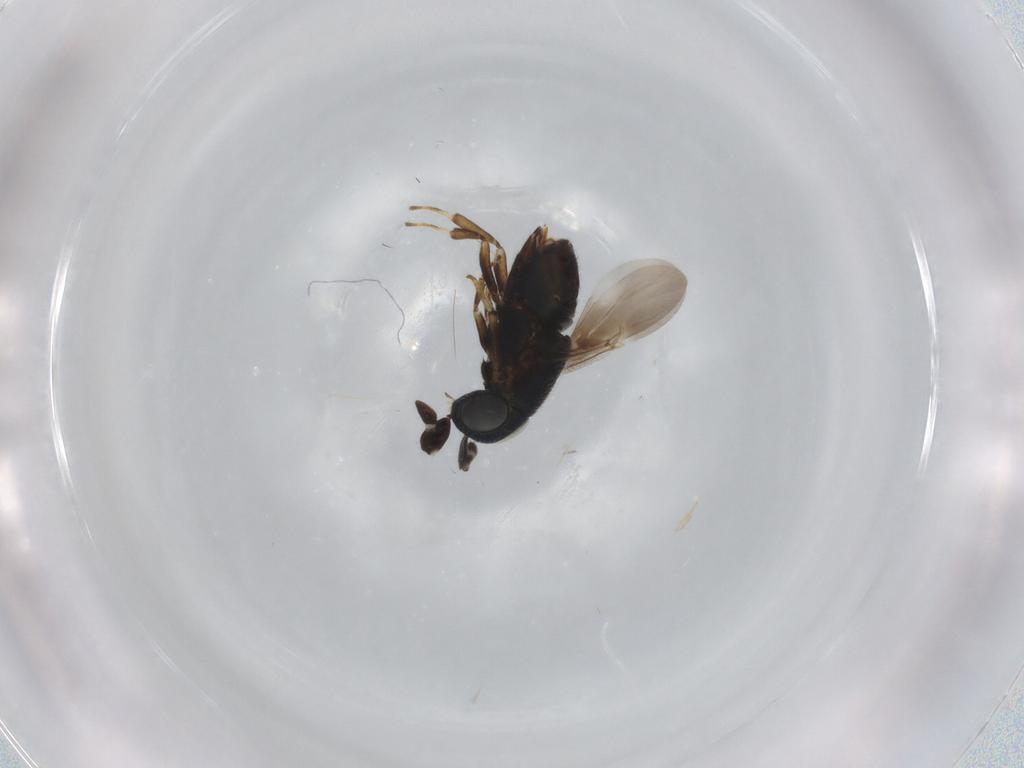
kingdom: Animalia
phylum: Arthropoda
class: Insecta
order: Hymenoptera
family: Encyrtidae
